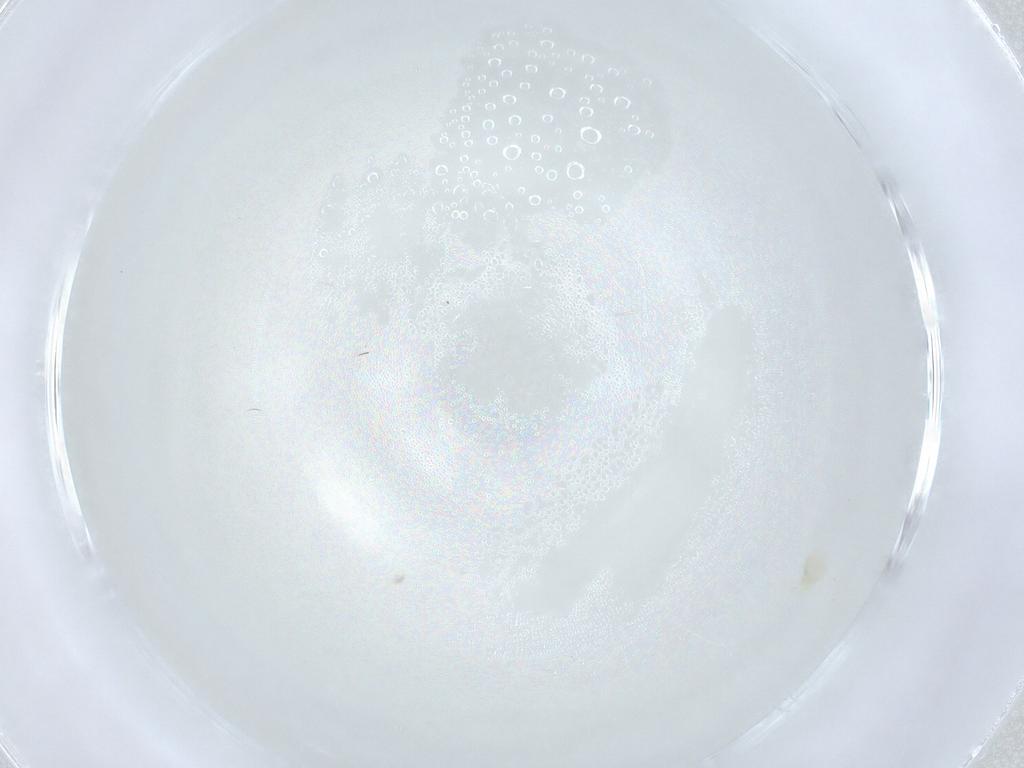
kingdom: Animalia
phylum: Arthropoda
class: Insecta
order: Diptera
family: Sciaridae
